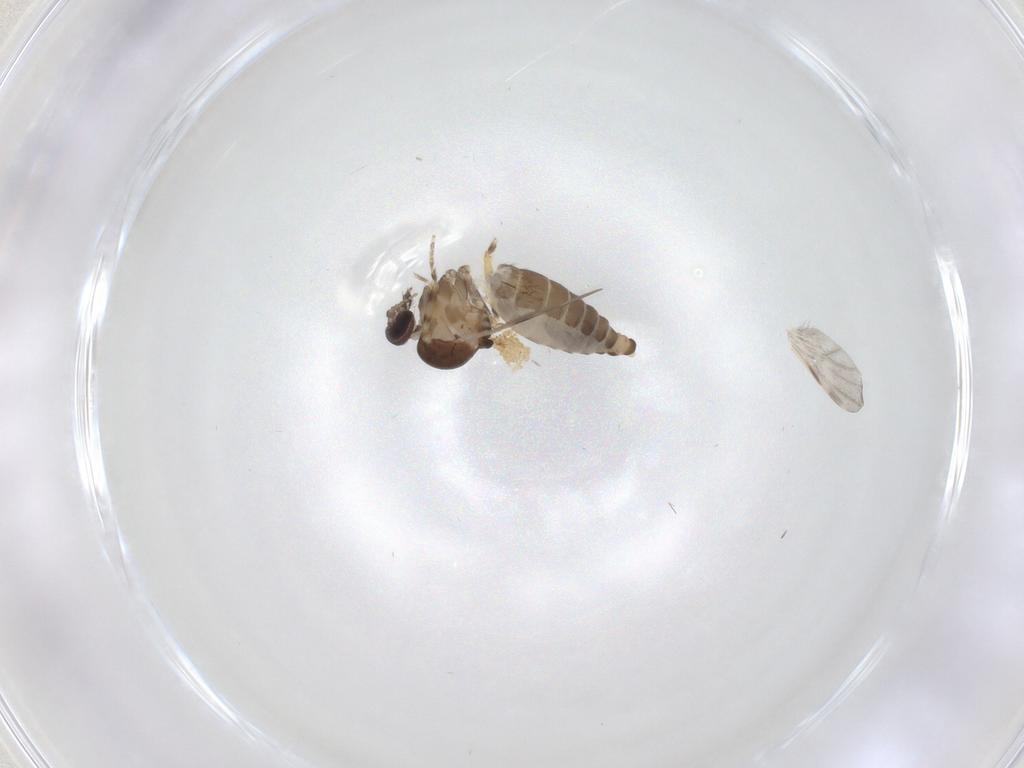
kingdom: Animalia
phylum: Arthropoda
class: Insecta
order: Diptera
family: Ceratopogonidae
